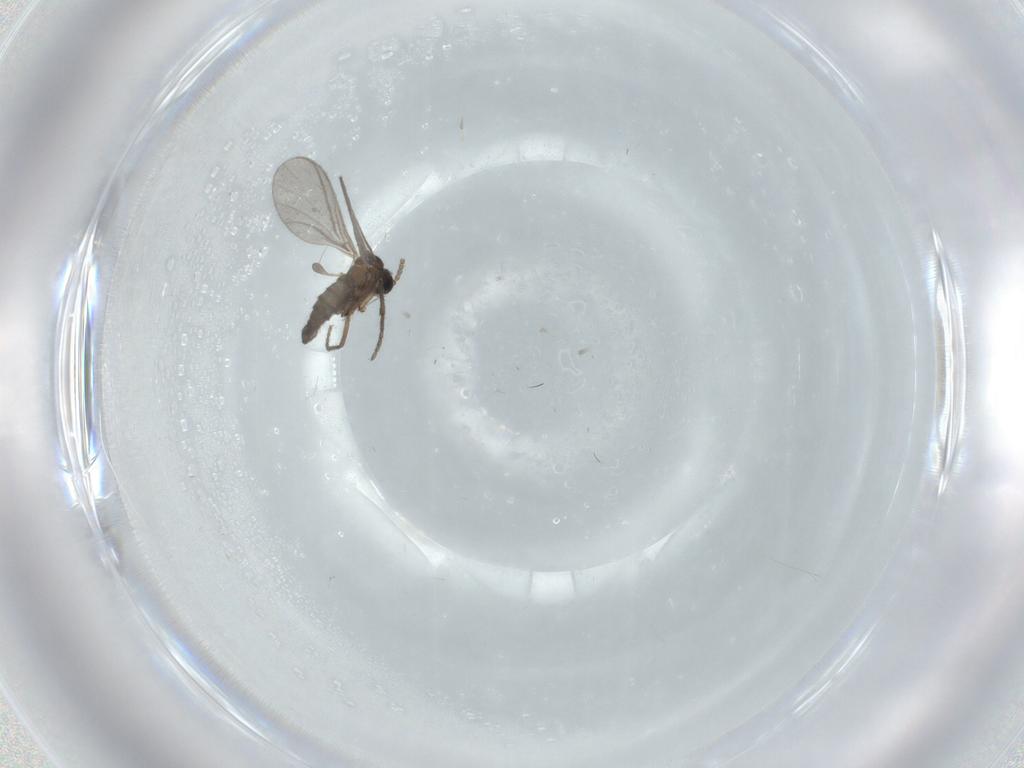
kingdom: Animalia
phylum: Arthropoda
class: Insecta
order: Diptera
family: Sciaridae
